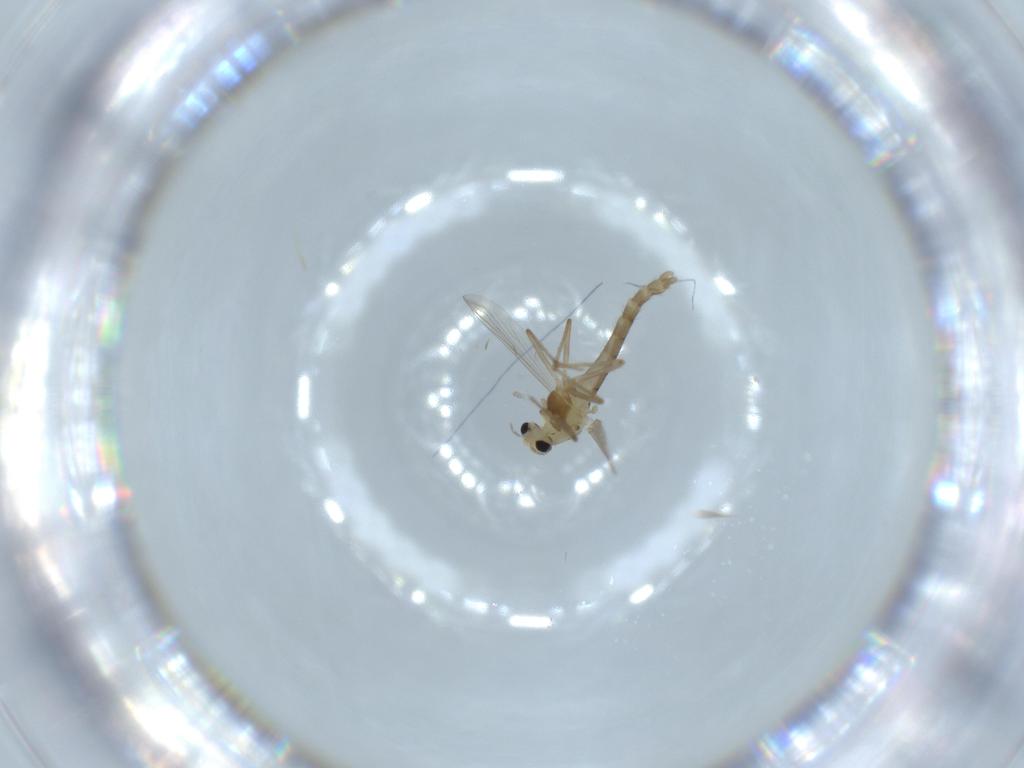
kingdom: Animalia
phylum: Arthropoda
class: Insecta
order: Diptera
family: Chironomidae
